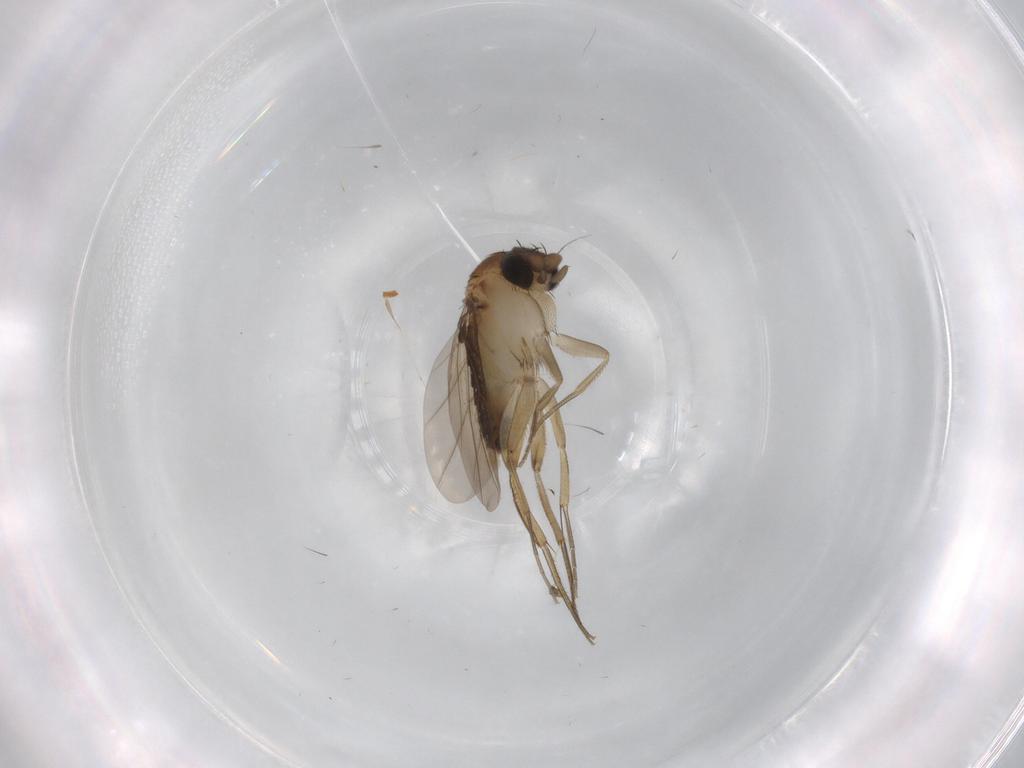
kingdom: Animalia
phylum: Arthropoda
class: Insecta
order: Diptera
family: Phoridae
